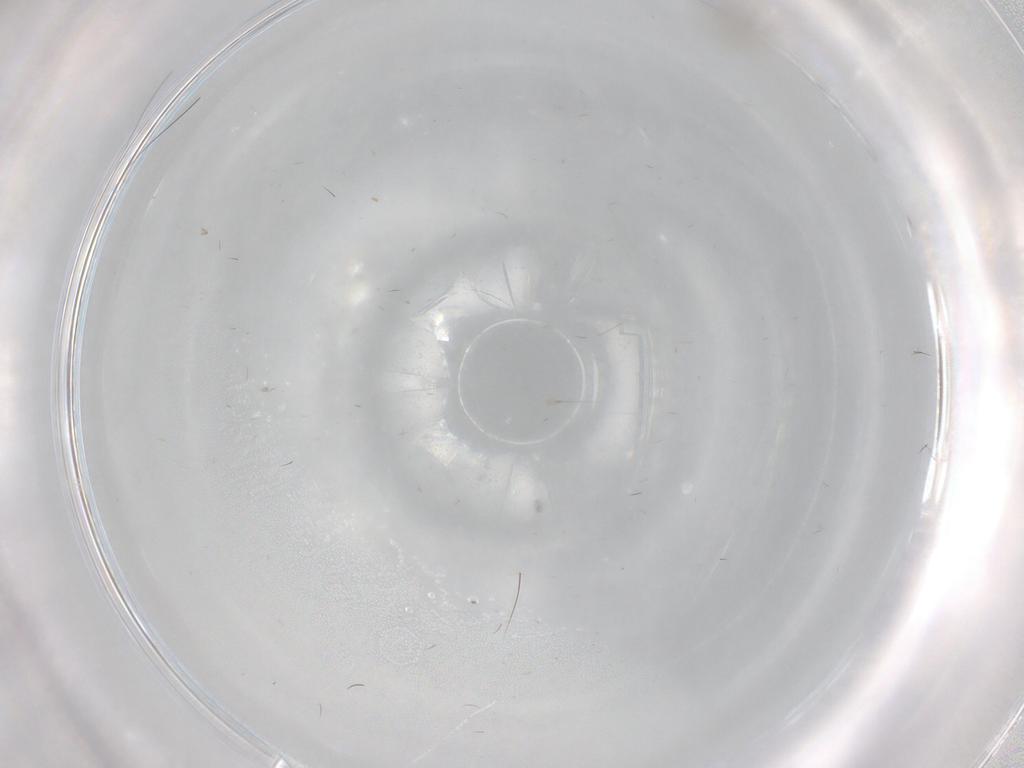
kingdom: Animalia
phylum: Arthropoda
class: Insecta
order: Diptera
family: Cecidomyiidae
